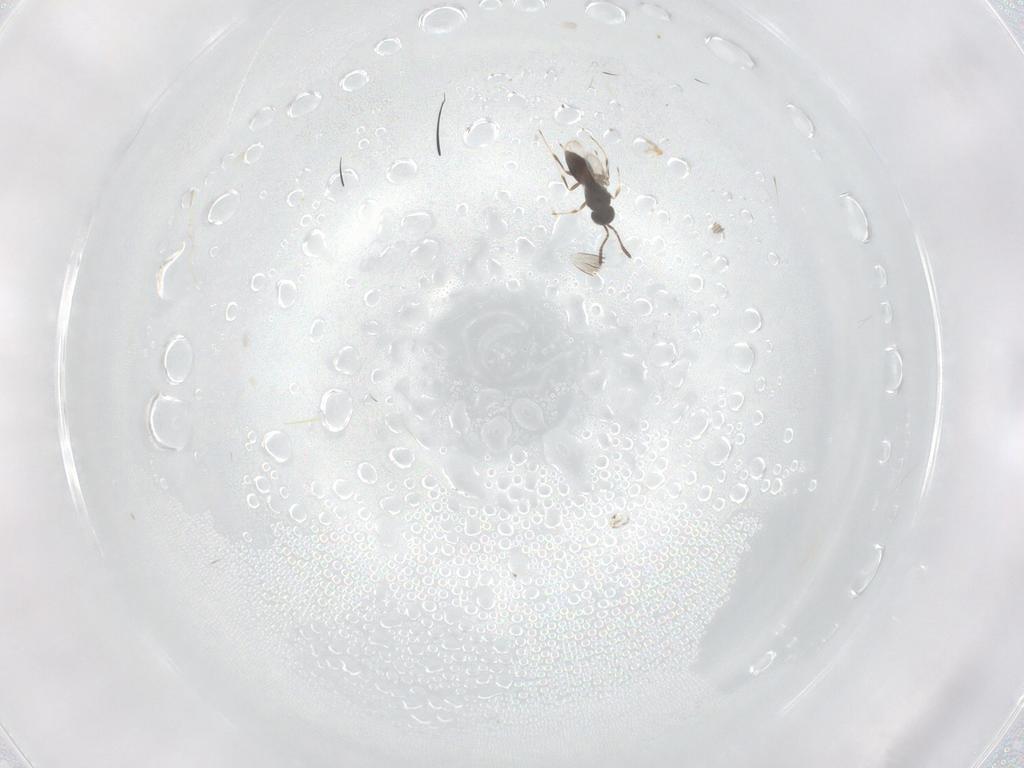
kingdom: Animalia
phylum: Arthropoda
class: Insecta
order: Hymenoptera
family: Scelionidae
